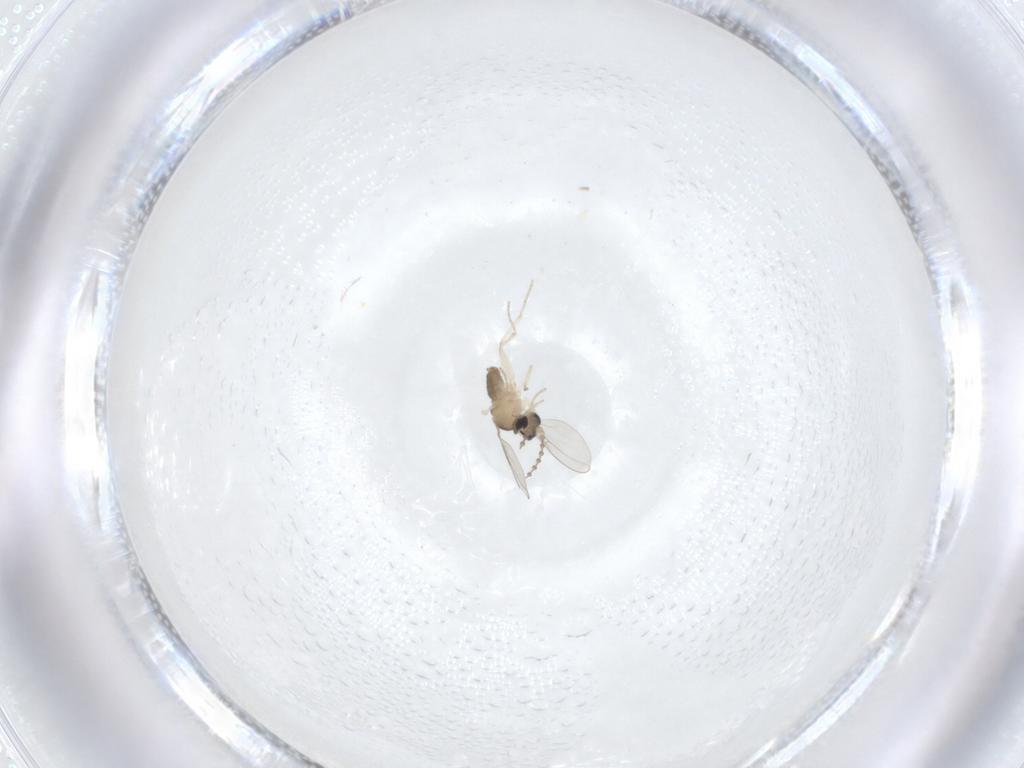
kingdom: Animalia
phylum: Arthropoda
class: Insecta
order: Diptera
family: Cecidomyiidae
